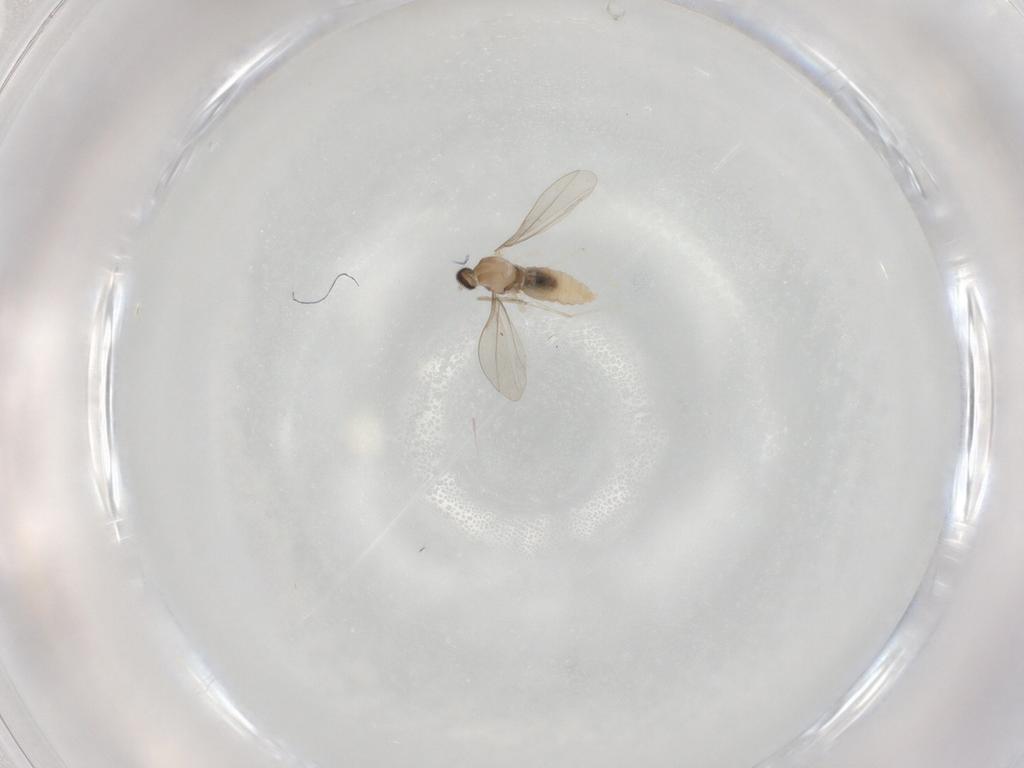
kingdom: Animalia
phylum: Arthropoda
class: Insecta
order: Diptera
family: Cecidomyiidae
